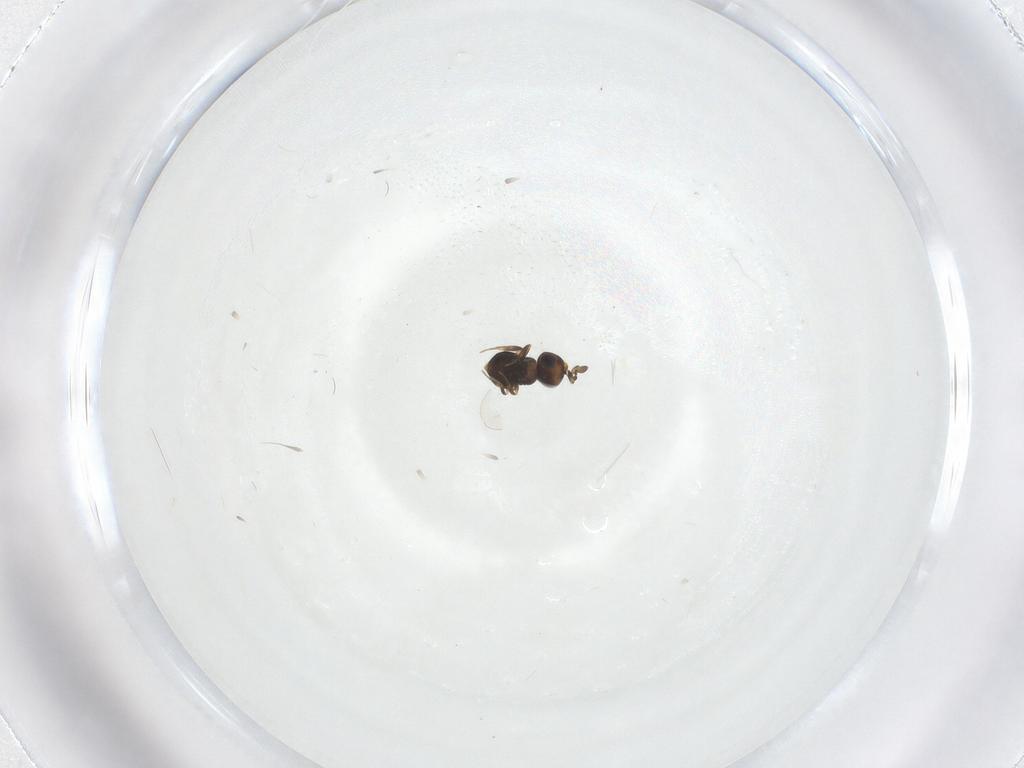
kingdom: Animalia
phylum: Arthropoda
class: Insecta
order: Hymenoptera
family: Scelionidae
